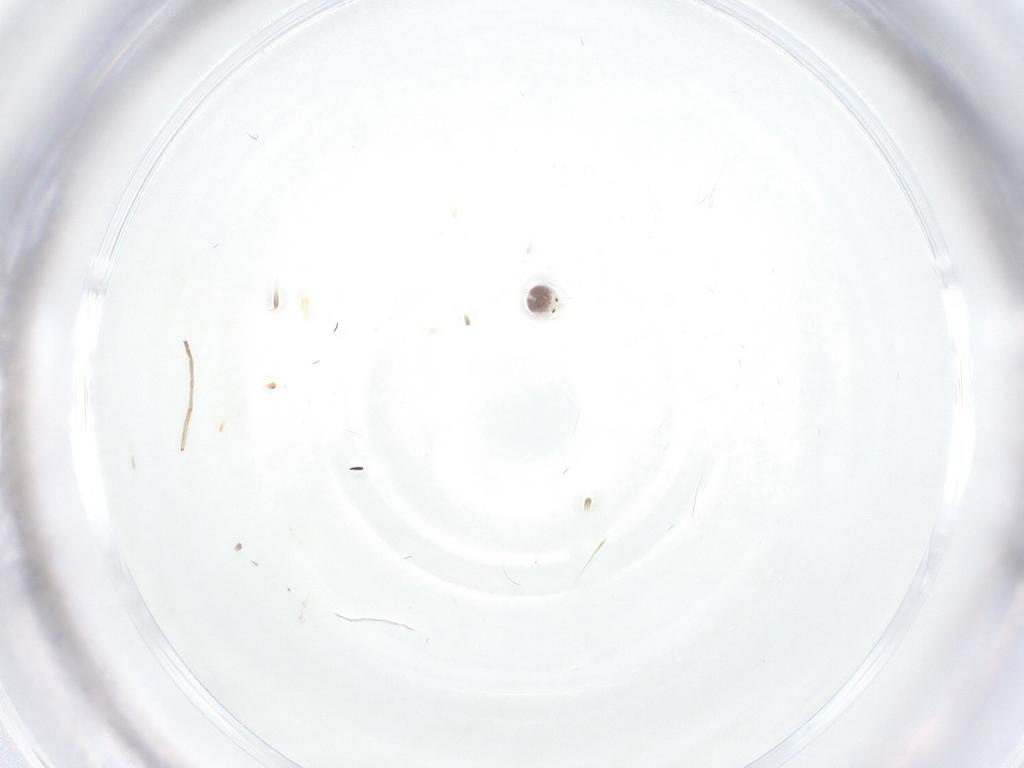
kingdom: Animalia
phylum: Arthropoda
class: Insecta
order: Diptera
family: Chironomidae
